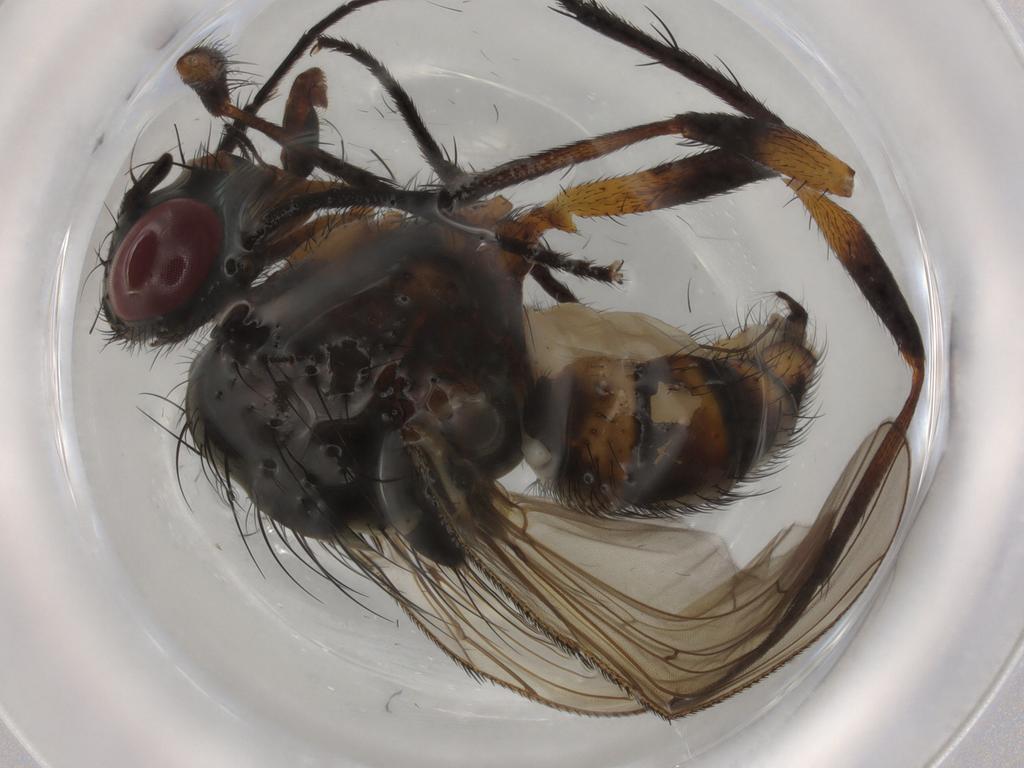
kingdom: Animalia
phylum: Arthropoda
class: Insecta
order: Diptera
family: Anthomyiidae
